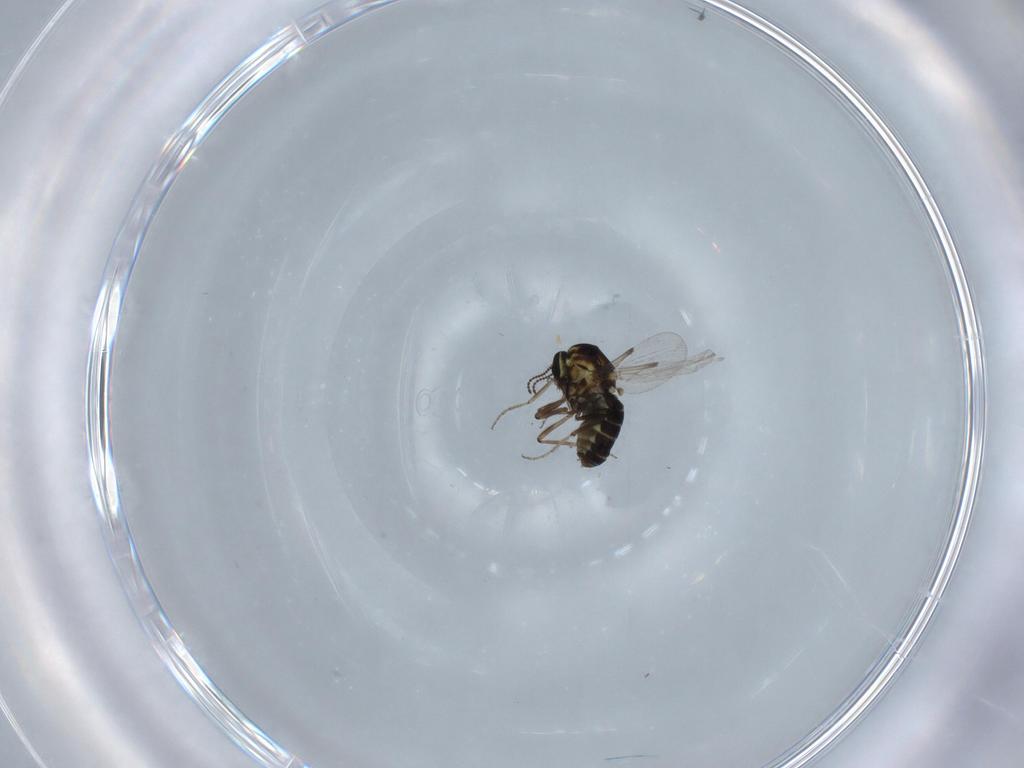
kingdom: Animalia
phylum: Arthropoda
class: Insecta
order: Diptera
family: Ceratopogonidae
